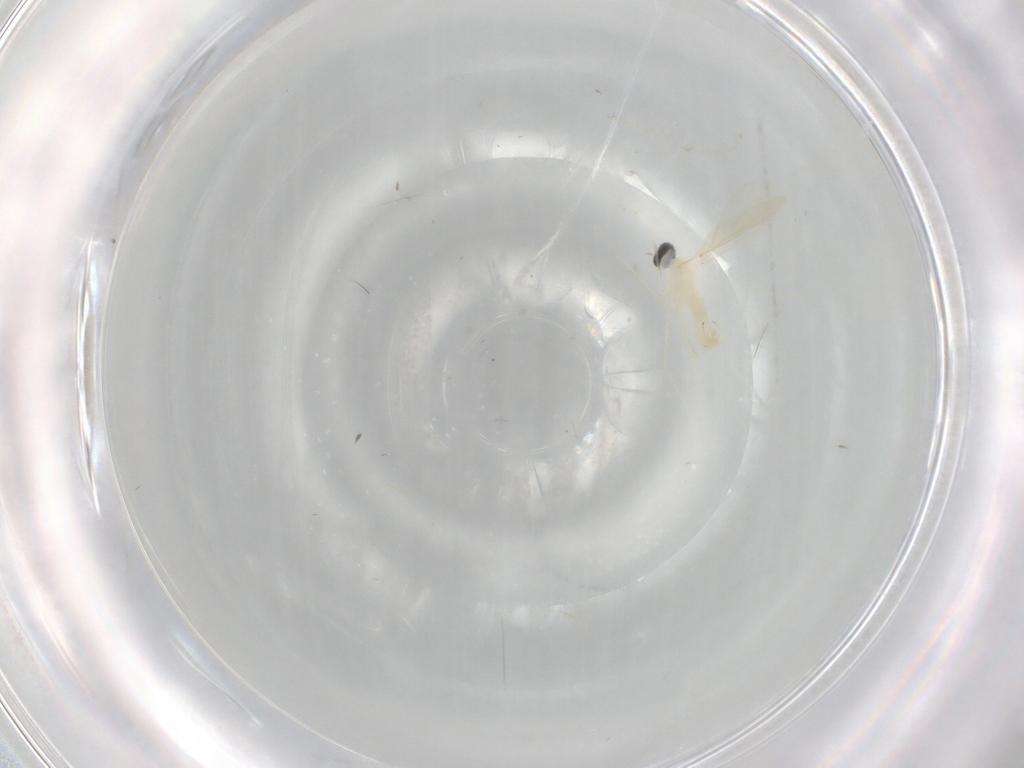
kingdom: Animalia
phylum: Arthropoda
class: Insecta
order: Diptera
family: Cecidomyiidae
